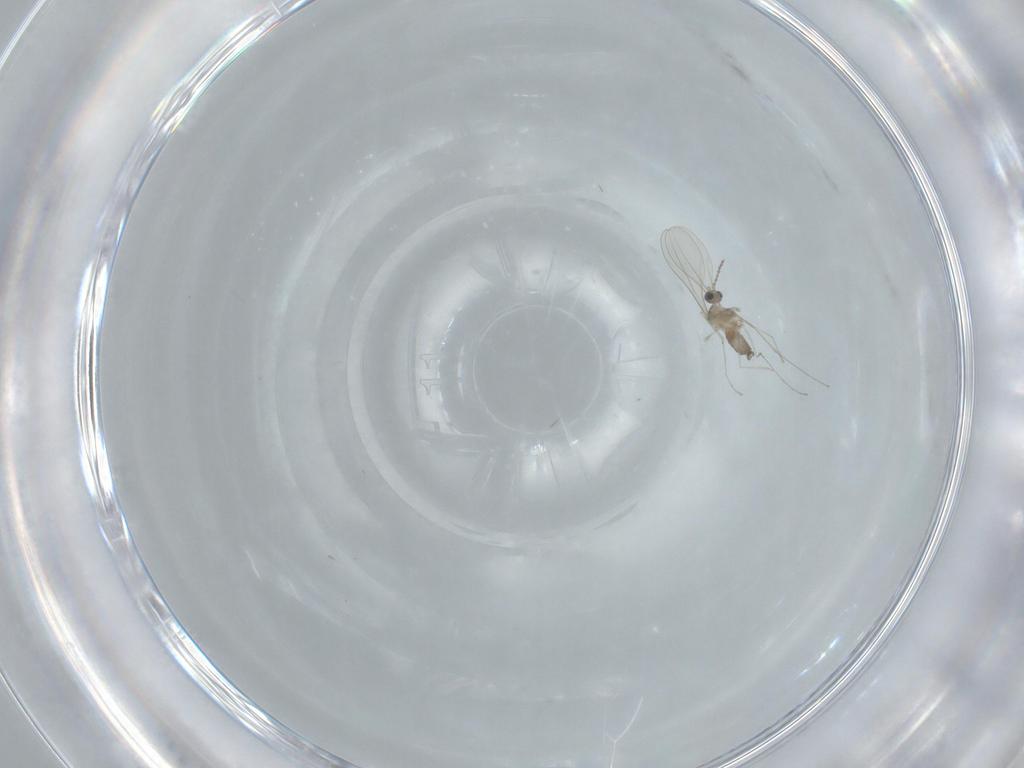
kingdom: Animalia
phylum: Arthropoda
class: Insecta
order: Diptera
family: Cecidomyiidae
